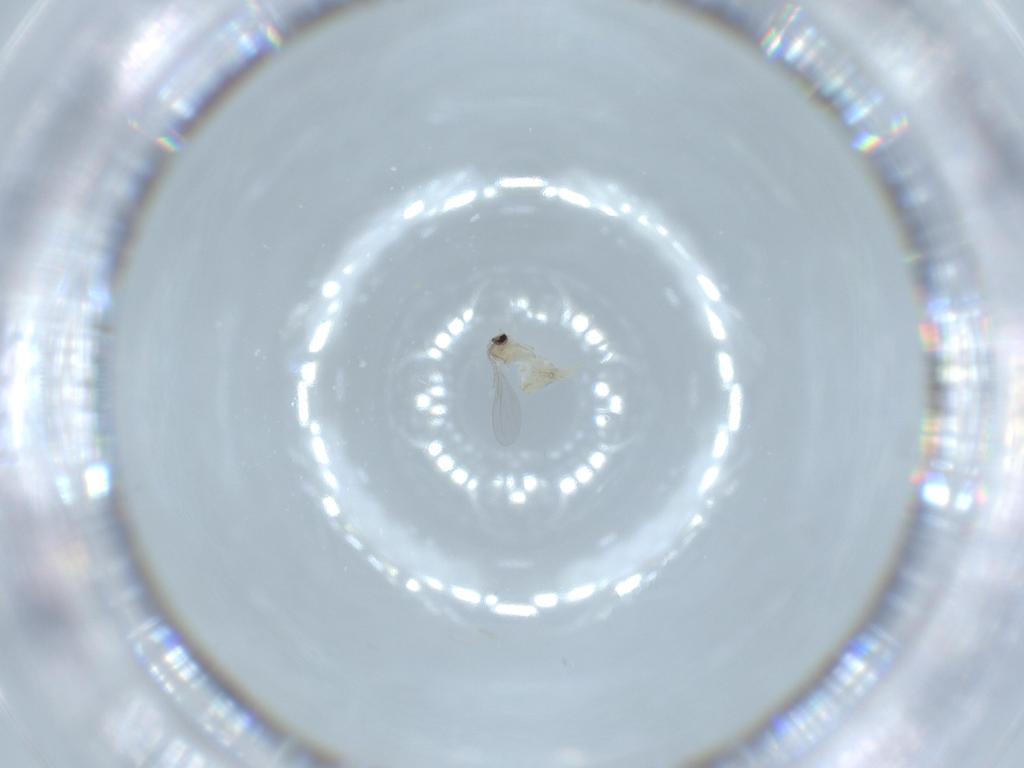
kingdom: Animalia
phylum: Arthropoda
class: Insecta
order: Diptera
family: Cecidomyiidae
